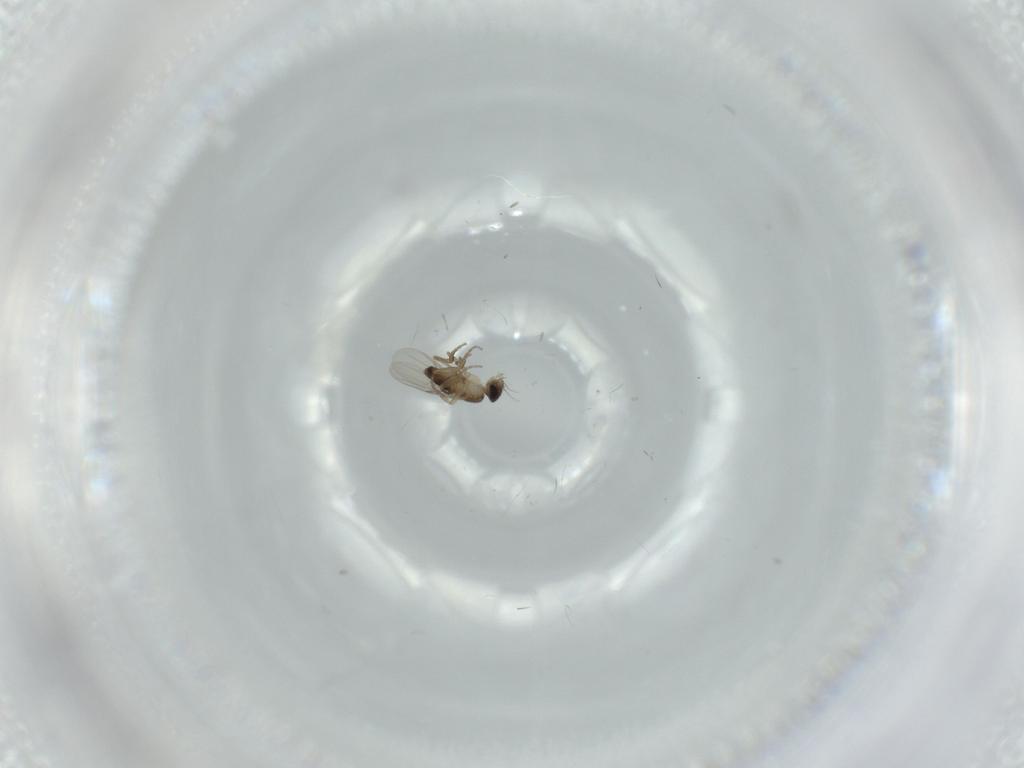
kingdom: Animalia
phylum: Arthropoda
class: Insecta
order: Diptera
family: Phoridae
